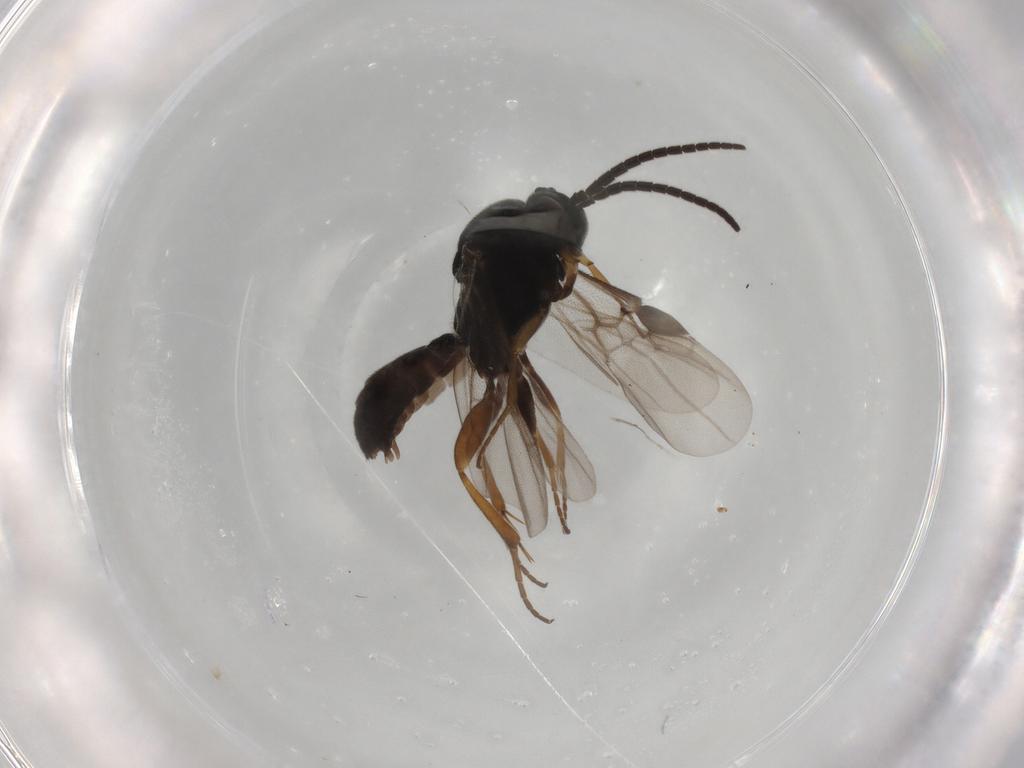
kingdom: Animalia
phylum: Arthropoda
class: Insecta
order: Hymenoptera
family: Braconidae
